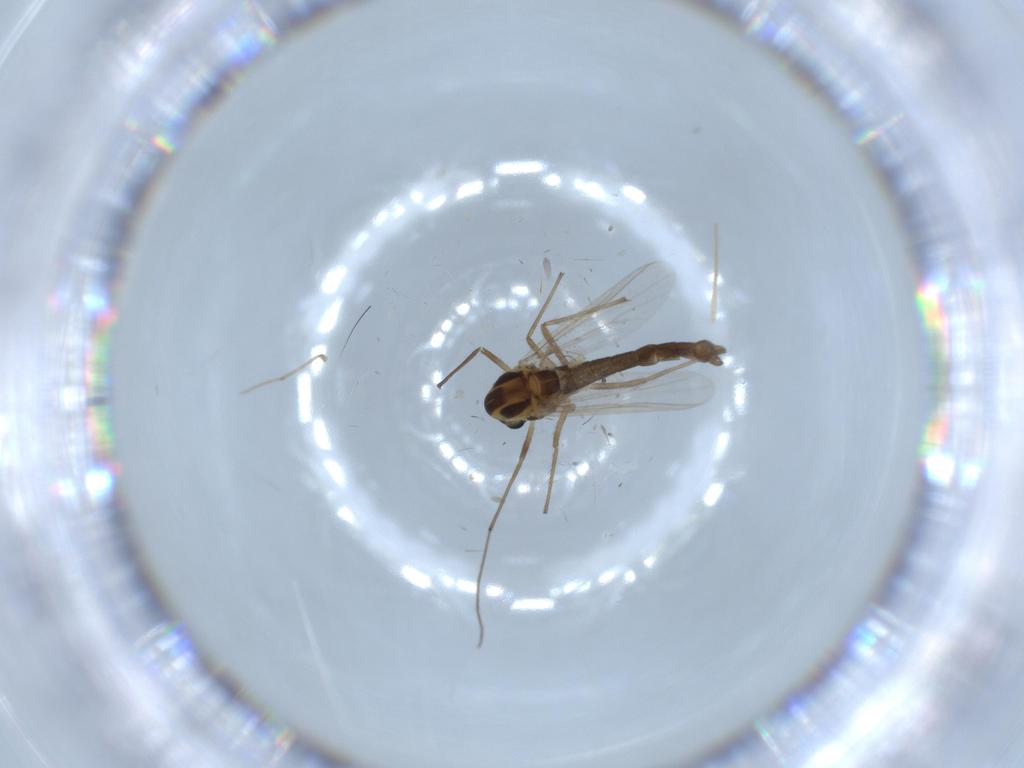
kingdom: Animalia
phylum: Arthropoda
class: Insecta
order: Diptera
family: Chironomidae
